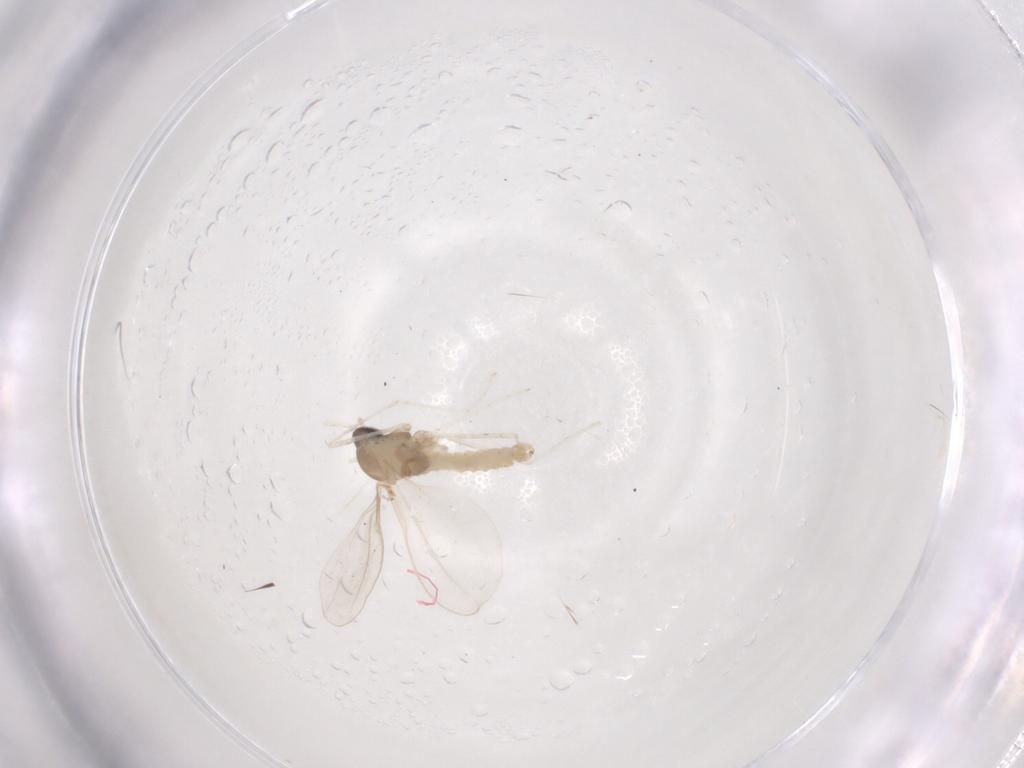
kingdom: Animalia
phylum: Arthropoda
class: Insecta
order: Diptera
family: Cecidomyiidae
